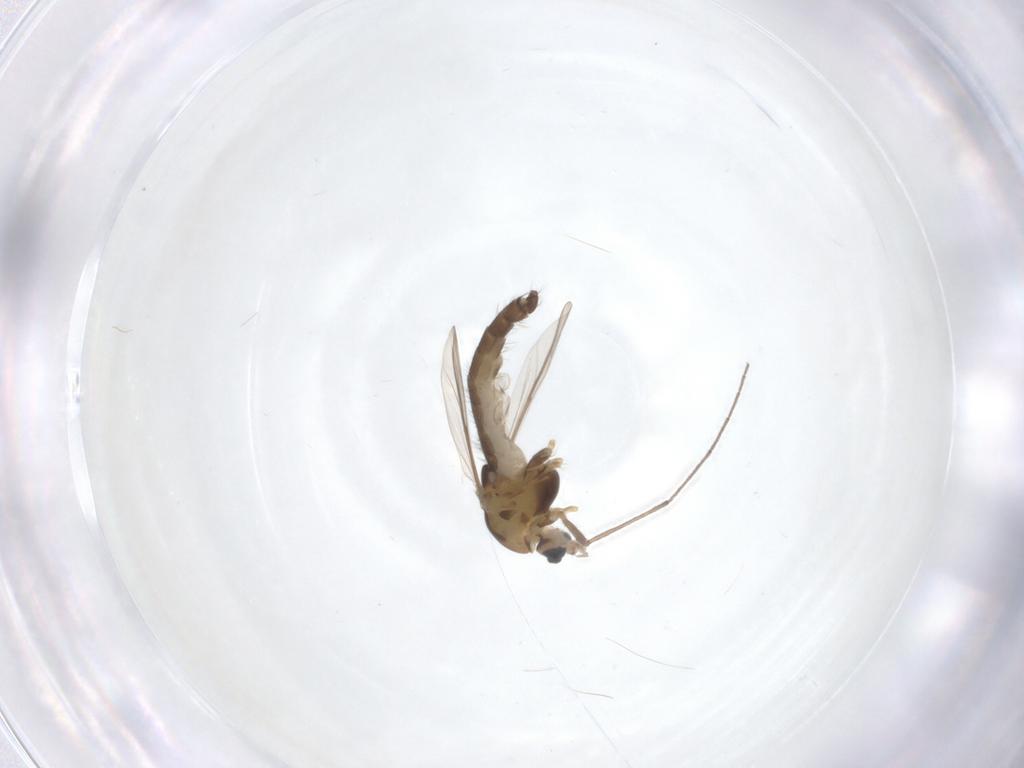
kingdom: Animalia
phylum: Arthropoda
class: Insecta
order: Diptera
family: Chironomidae
